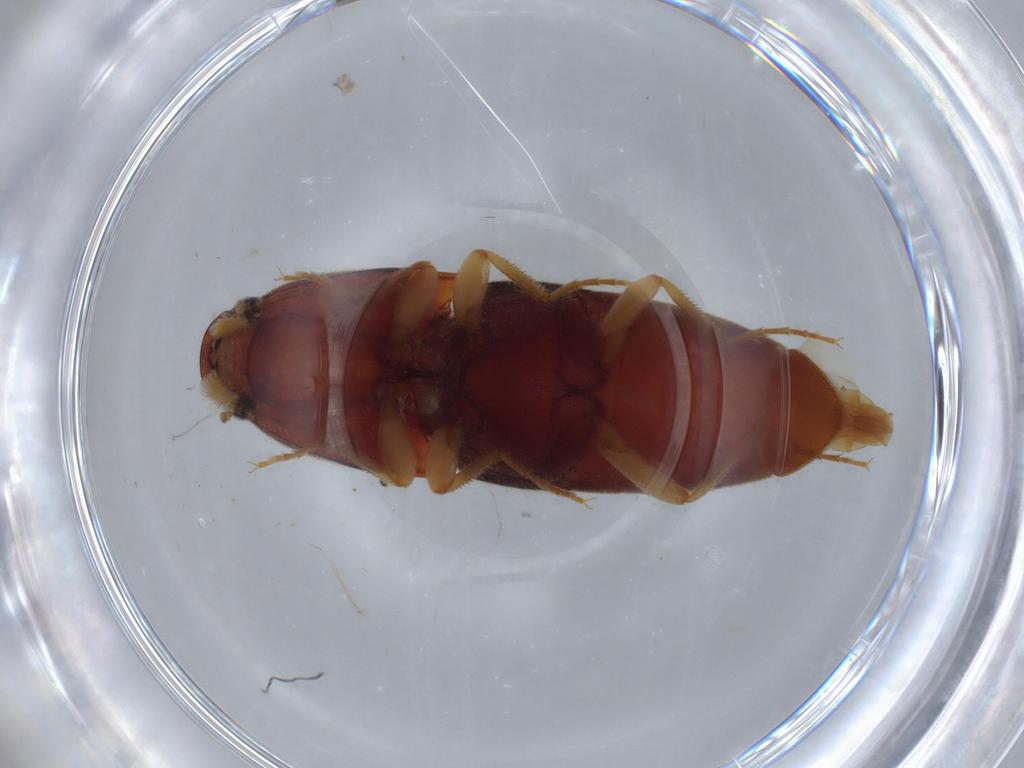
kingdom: Animalia
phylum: Arthropoda
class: Insecta
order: Coleoptera
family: Elateridae
